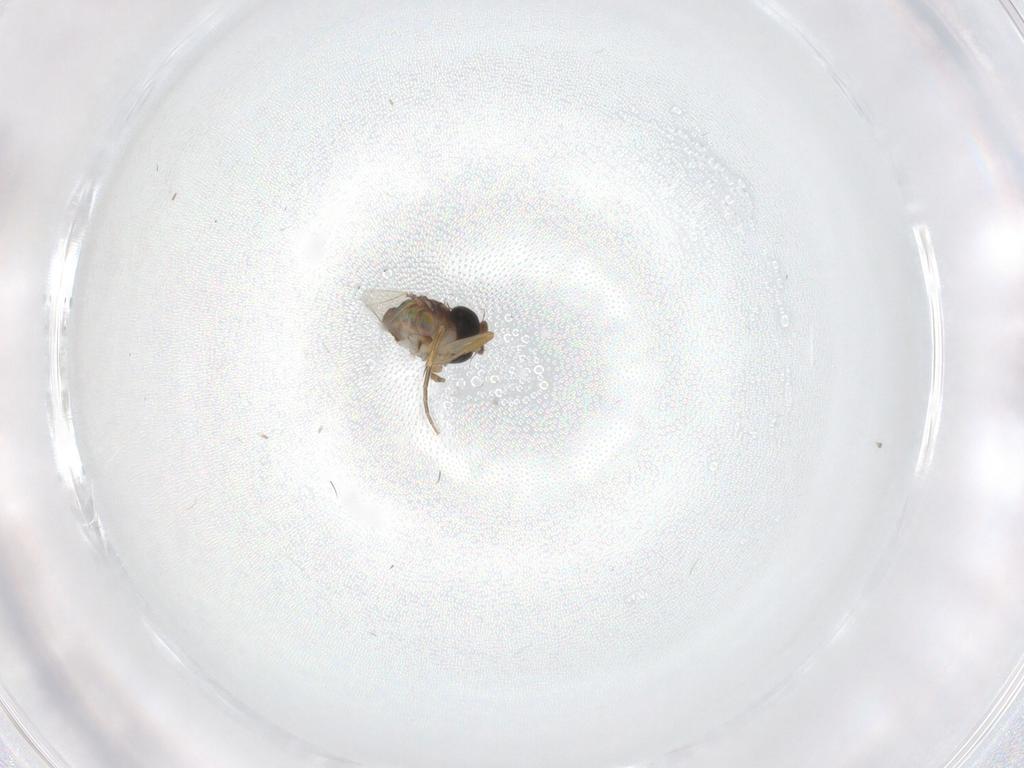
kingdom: Animalia
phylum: Arthropoda
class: Insecta
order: Diptera
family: Phoridae
